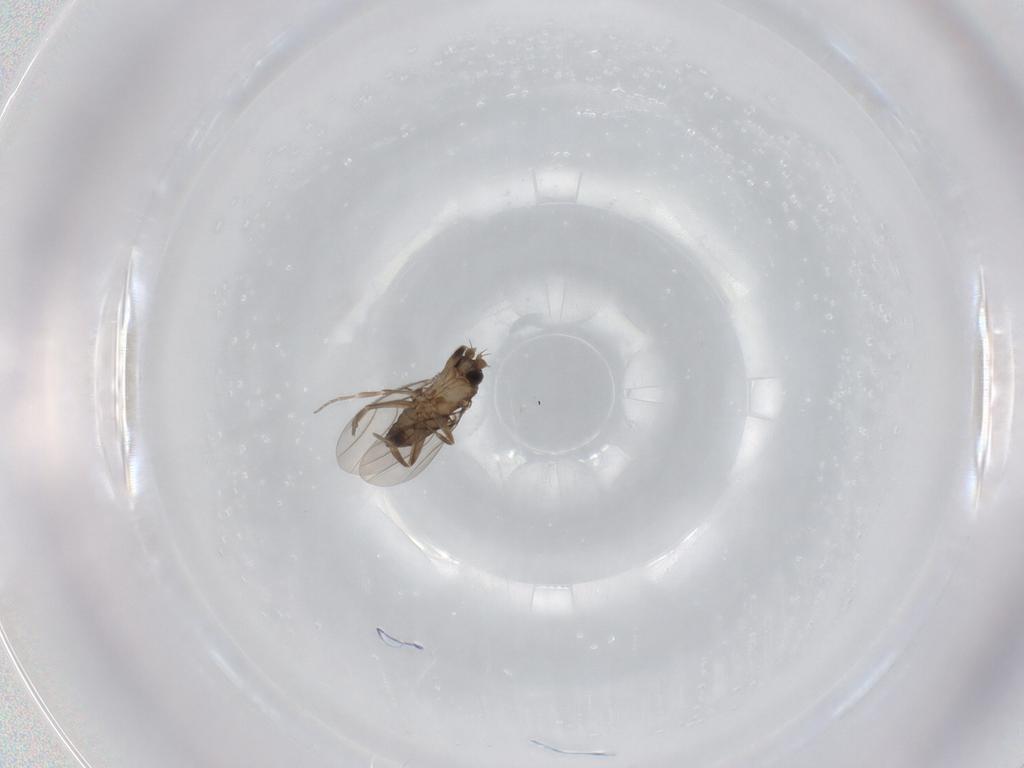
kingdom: Animalia
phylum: Arthropoda
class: Insecta
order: Diptera
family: Phoridae
